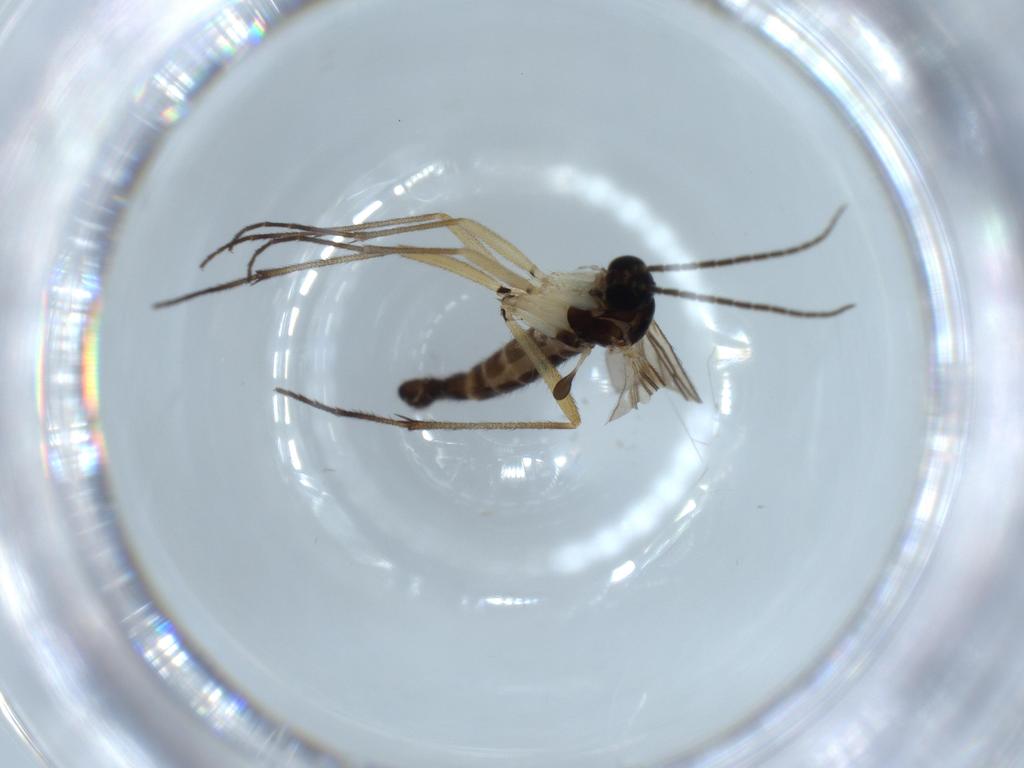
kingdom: Animalia
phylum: Arthropoda
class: Insecta
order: Diptera
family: Sciaridae
